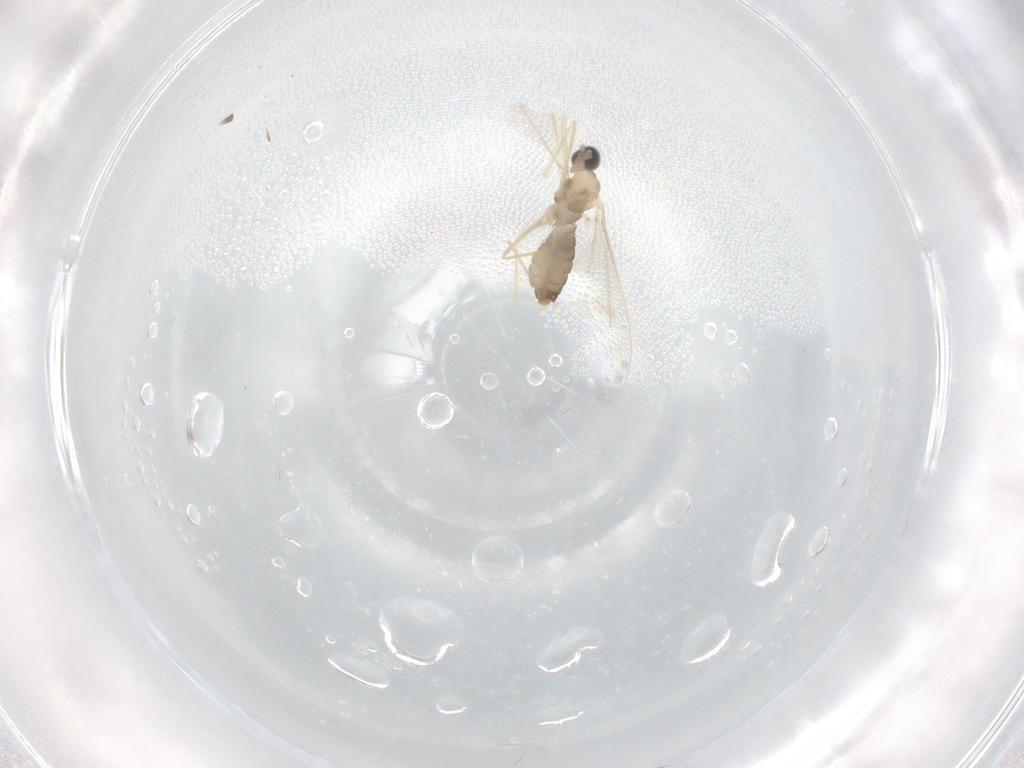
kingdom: Animalia
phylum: Arthropoda
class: Insecta
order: Diptera
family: Cecidomyiidae
